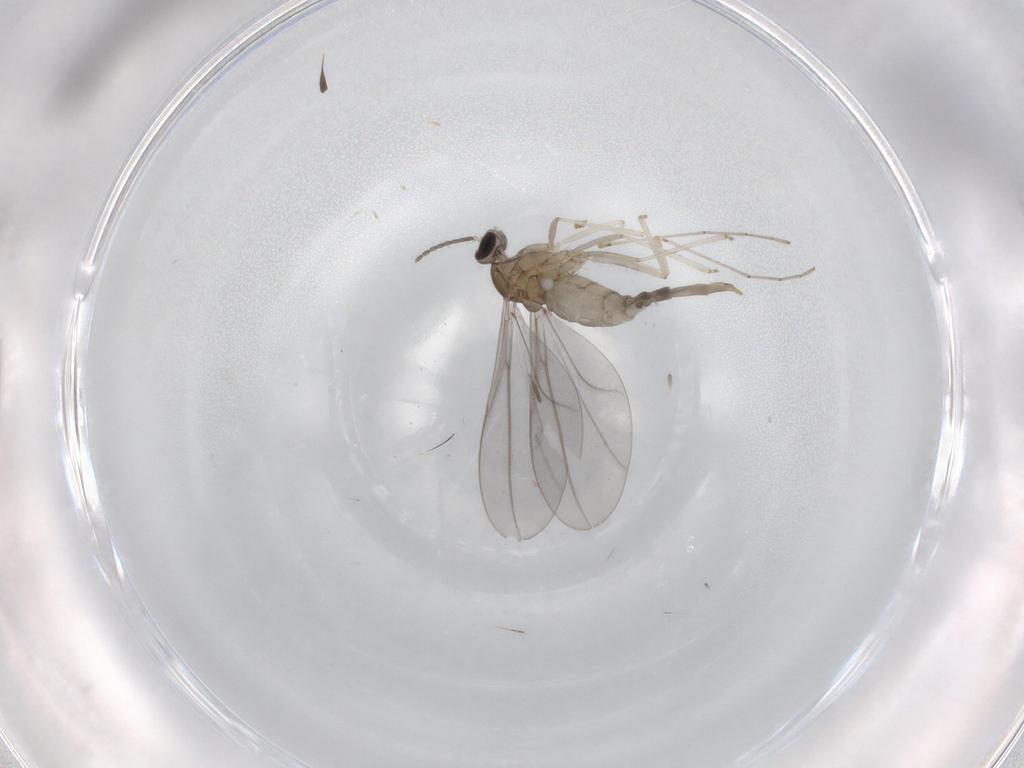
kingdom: Animalia
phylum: Arthropoda
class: Insecta
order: Diptera
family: Cecidomyiidae
